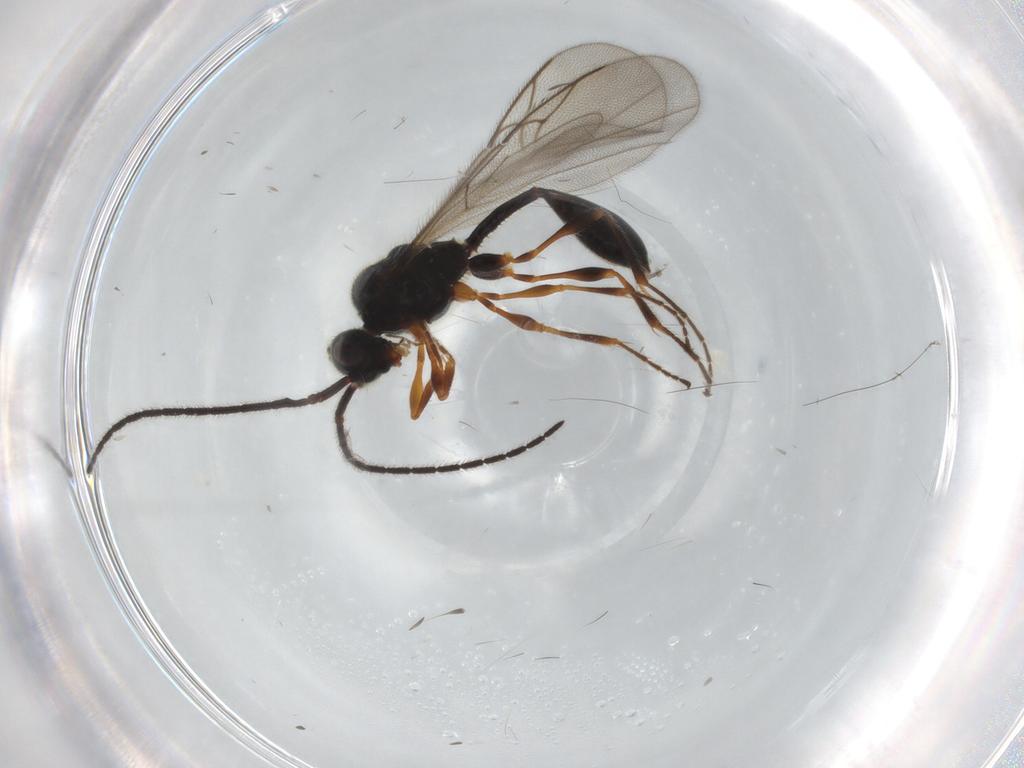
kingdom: Animalia
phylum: Arthropoda
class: Insecta
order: Hymenoptera
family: Diapriidae
